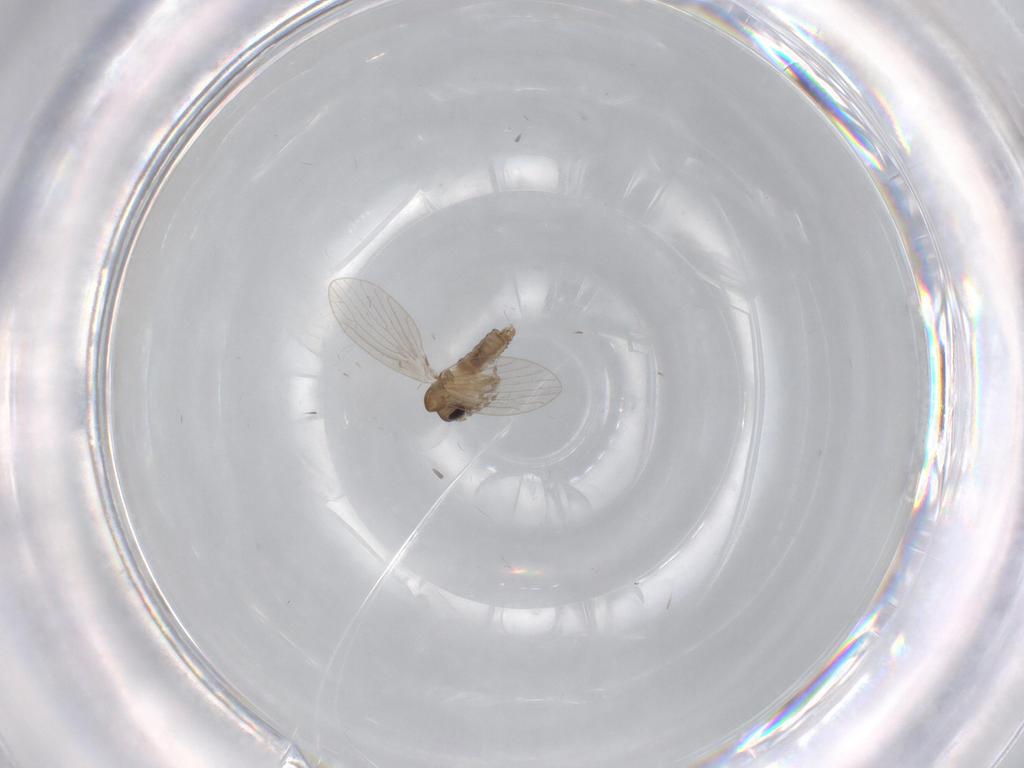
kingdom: Animalia
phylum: Arthropoda
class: Insecta
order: Diptera
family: Psychodidae
